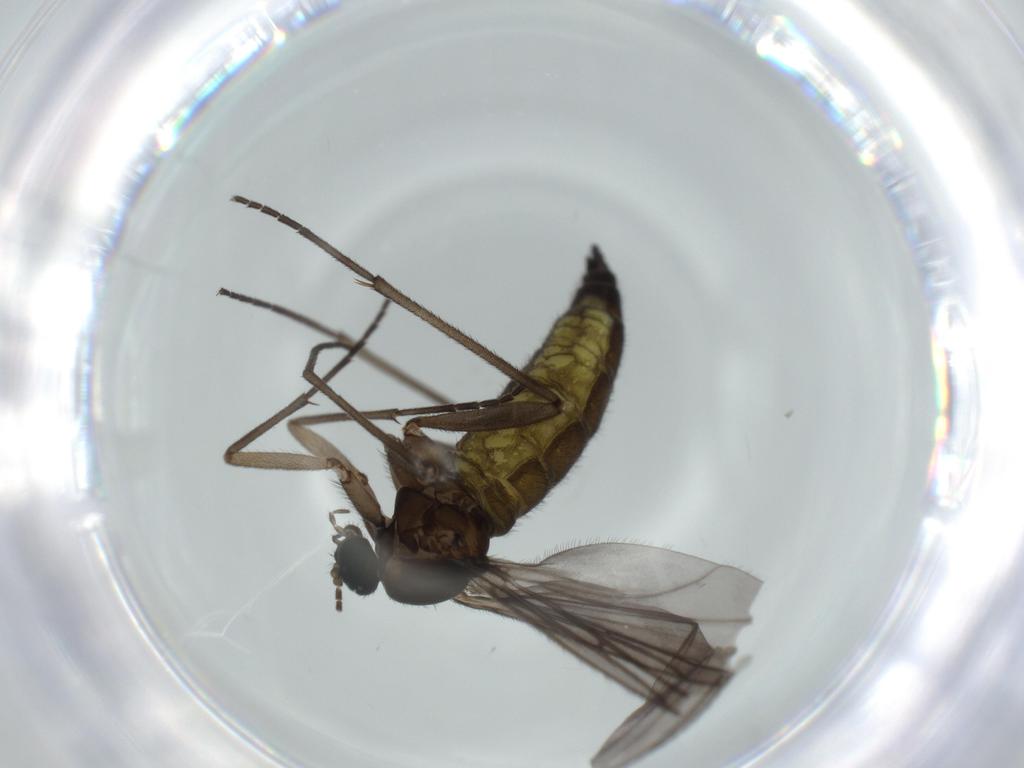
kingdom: Animalia
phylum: Arthropoda
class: Insecta
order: Diptera
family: Sciaridae
